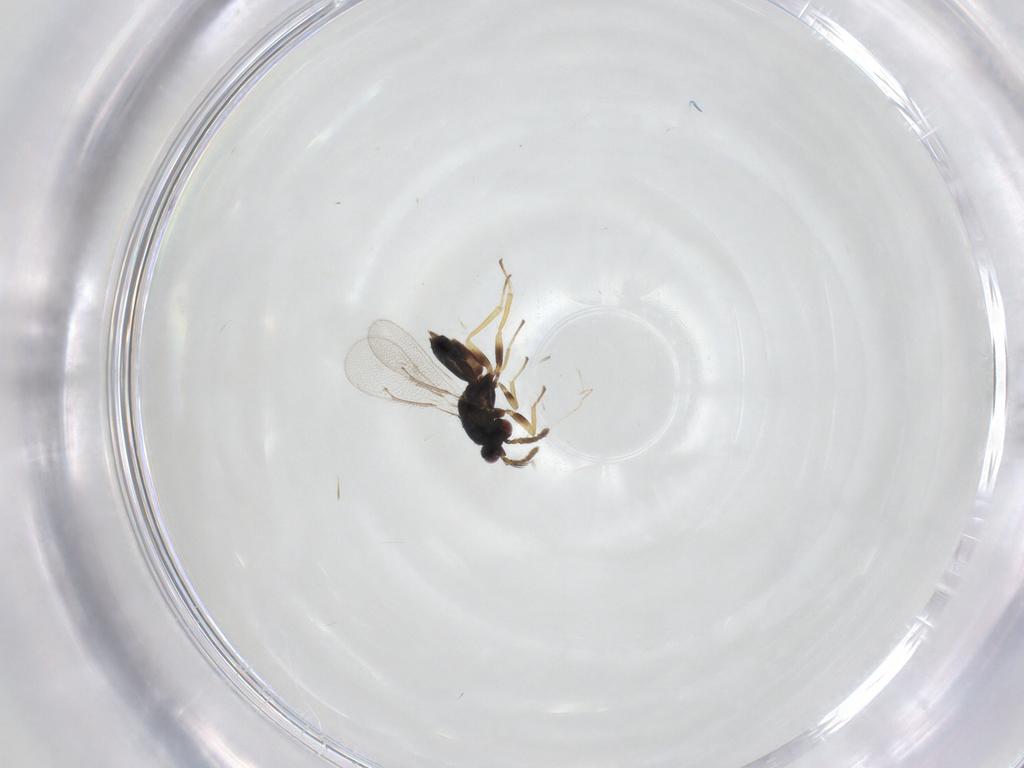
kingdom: Animalia
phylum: Arthropoda
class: Insecta
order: Hymenoptera
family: Eulophidae
